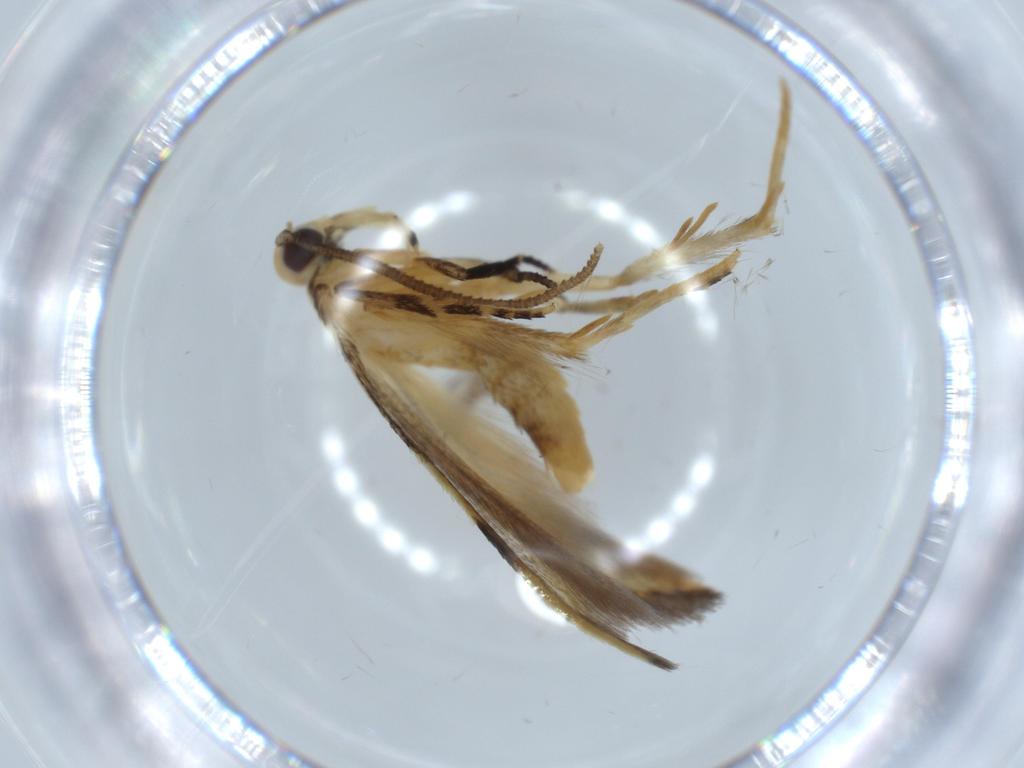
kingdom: Animalia
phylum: Arthropoda
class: Insecta
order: Lepidoptera
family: Autostichidae
